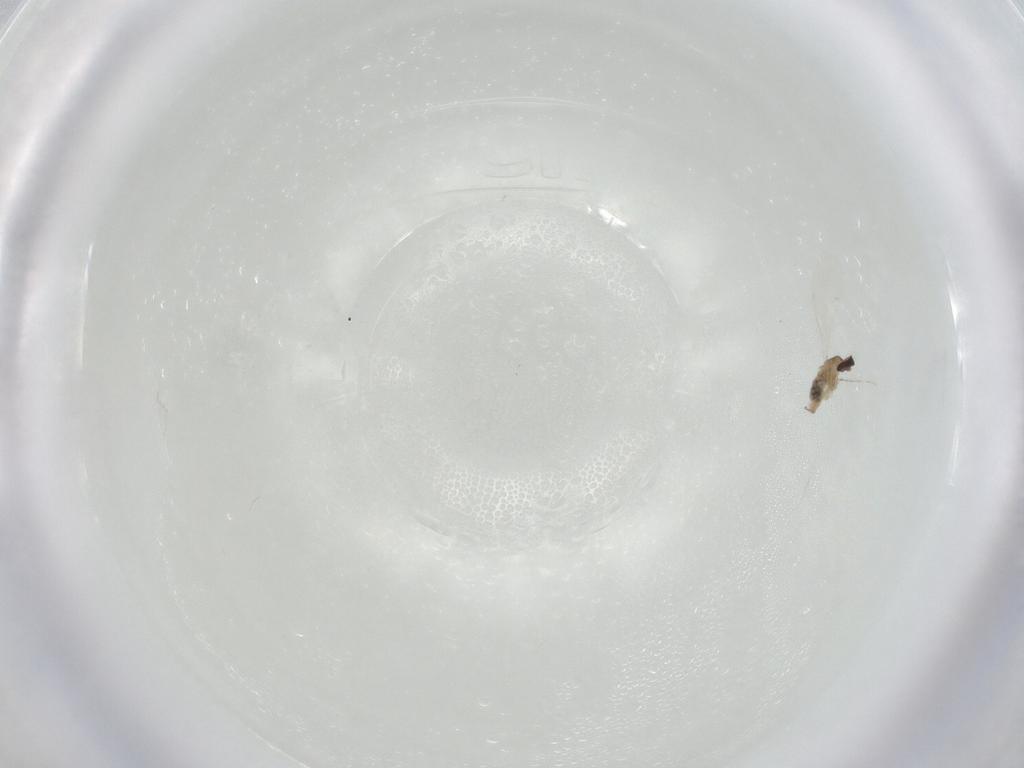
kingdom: Animalia
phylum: Arthropoda
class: Insecta
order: Diptera
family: Cecidomyiidae
